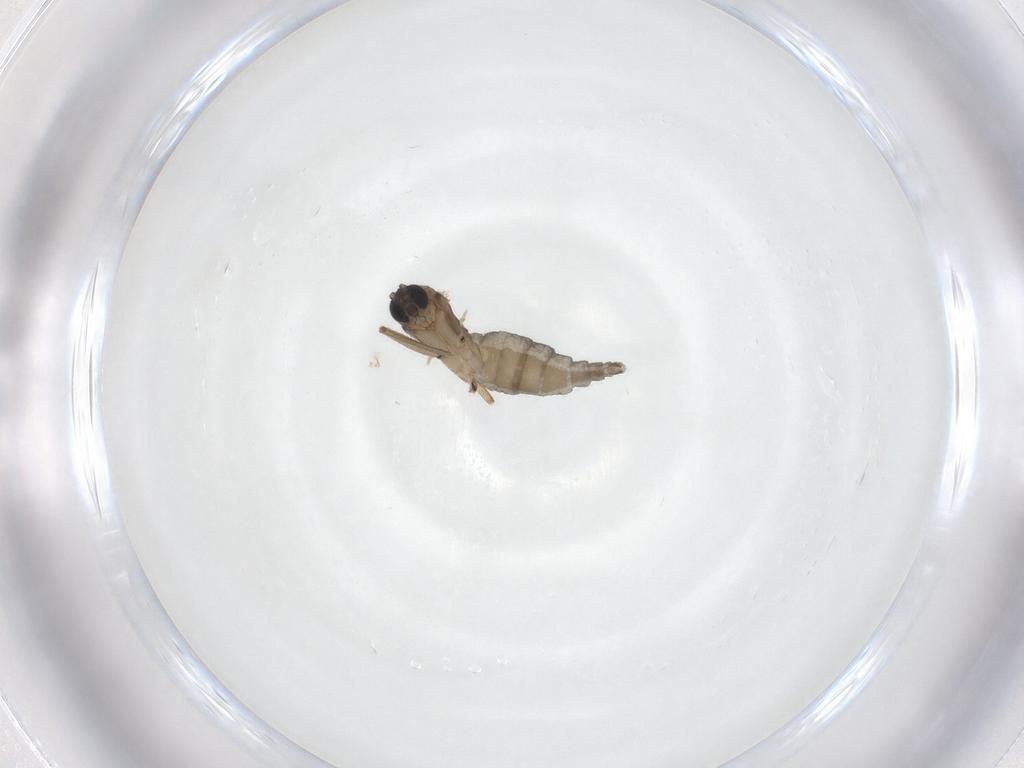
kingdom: Animalia
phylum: Arthropoda
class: Insecta
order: Diptera
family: Sciaridae
